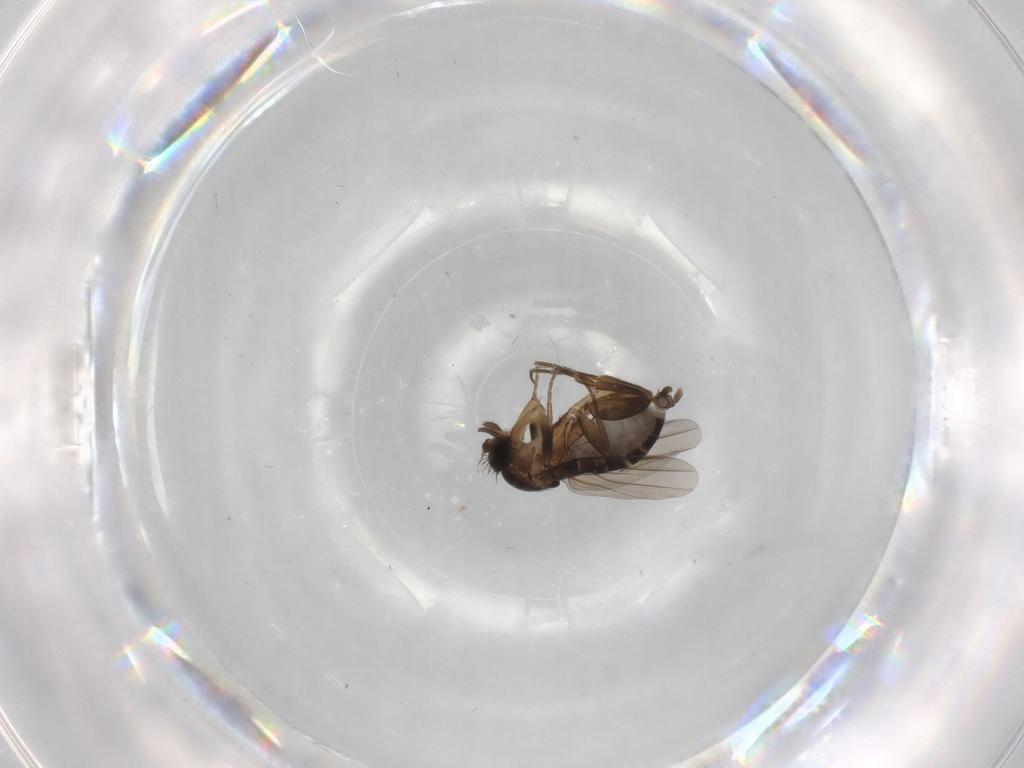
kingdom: Animalia
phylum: Arthropoda
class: Insecta
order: Diptera
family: Phoridae
